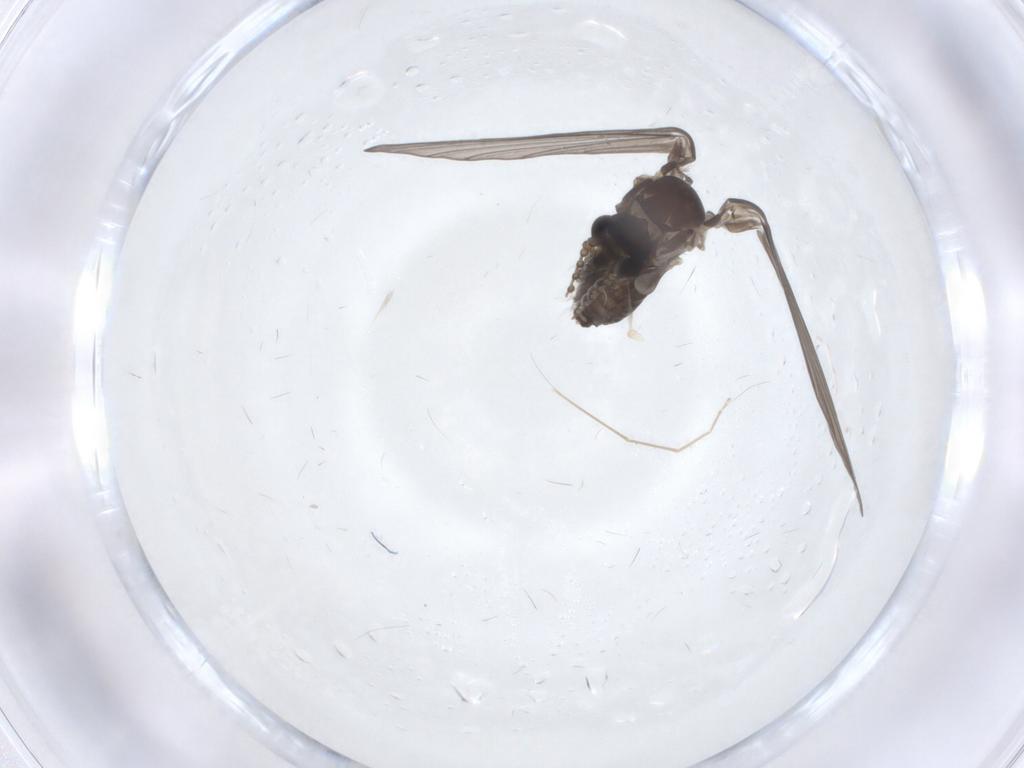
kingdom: Animalia
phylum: Arthropoda
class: Insecta
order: Diptera
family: Psychodidae
